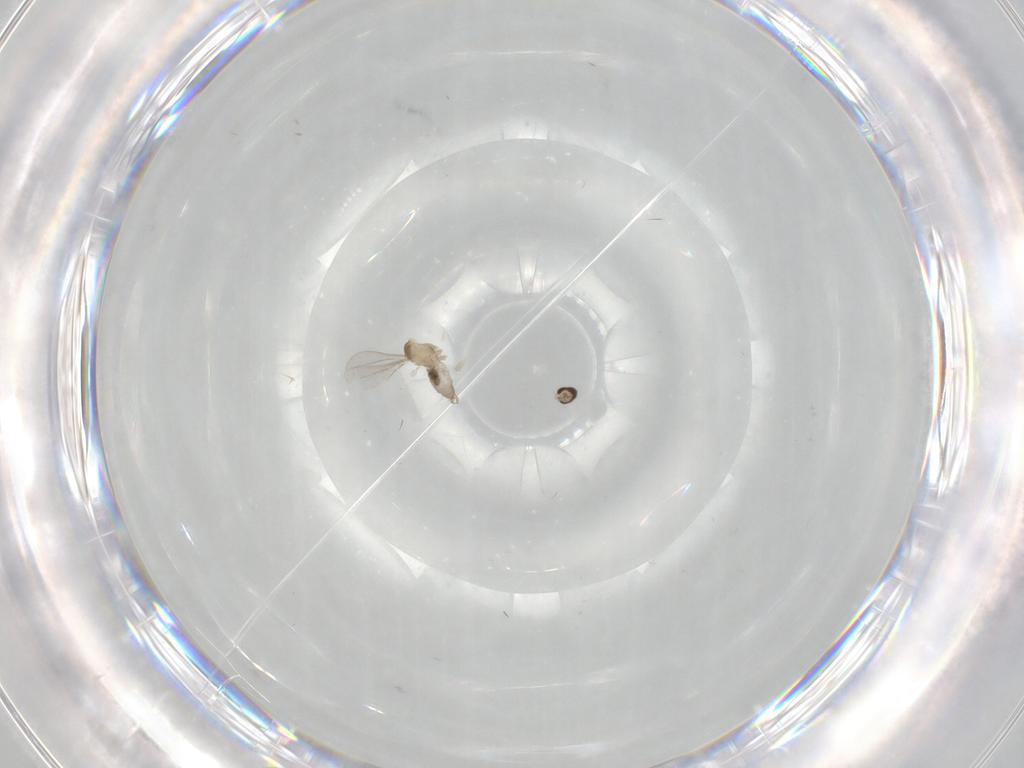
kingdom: Animalia
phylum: Arthropoda
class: Insecta
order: Diptera
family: Cecidomyiidae
